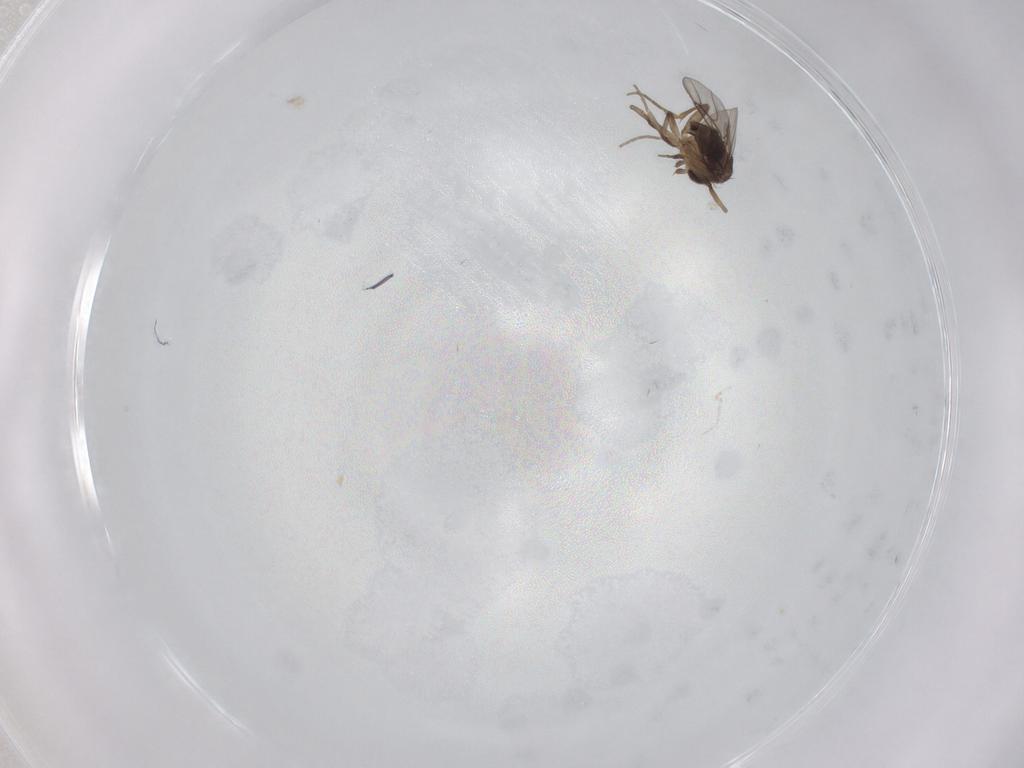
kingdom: Animalia
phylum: Arthropoda
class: Insecta
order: Diptera
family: Phoridae
